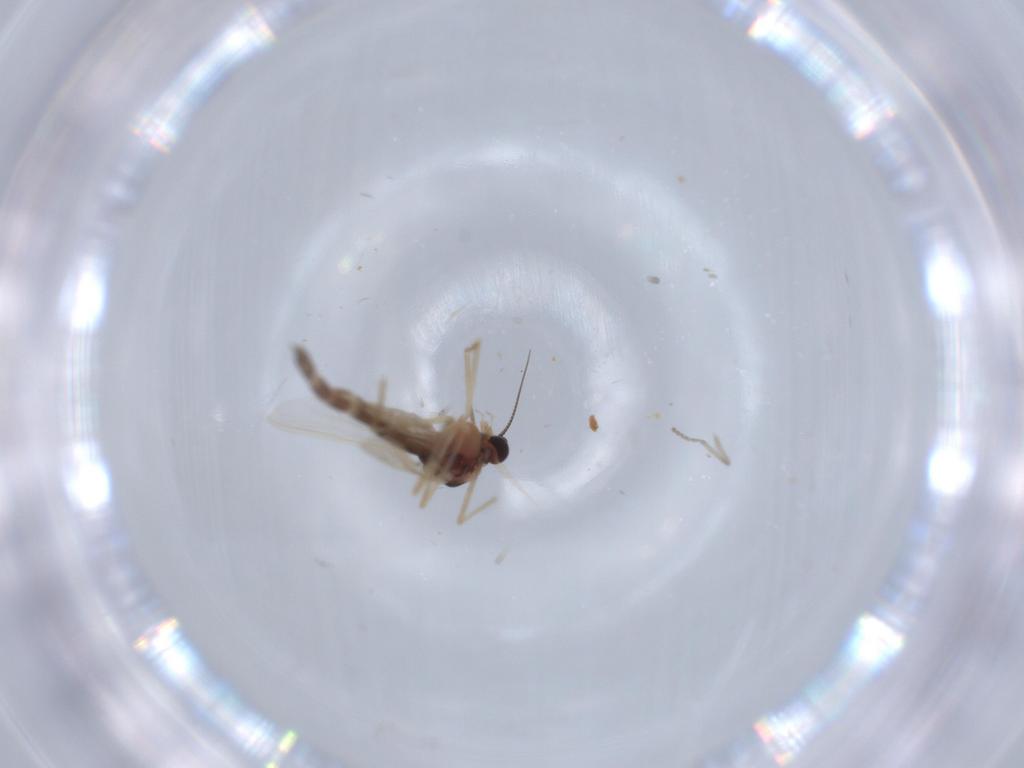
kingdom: Animalia
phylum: Arthropoda
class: Insecta
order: Diptera
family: Chironomidae
